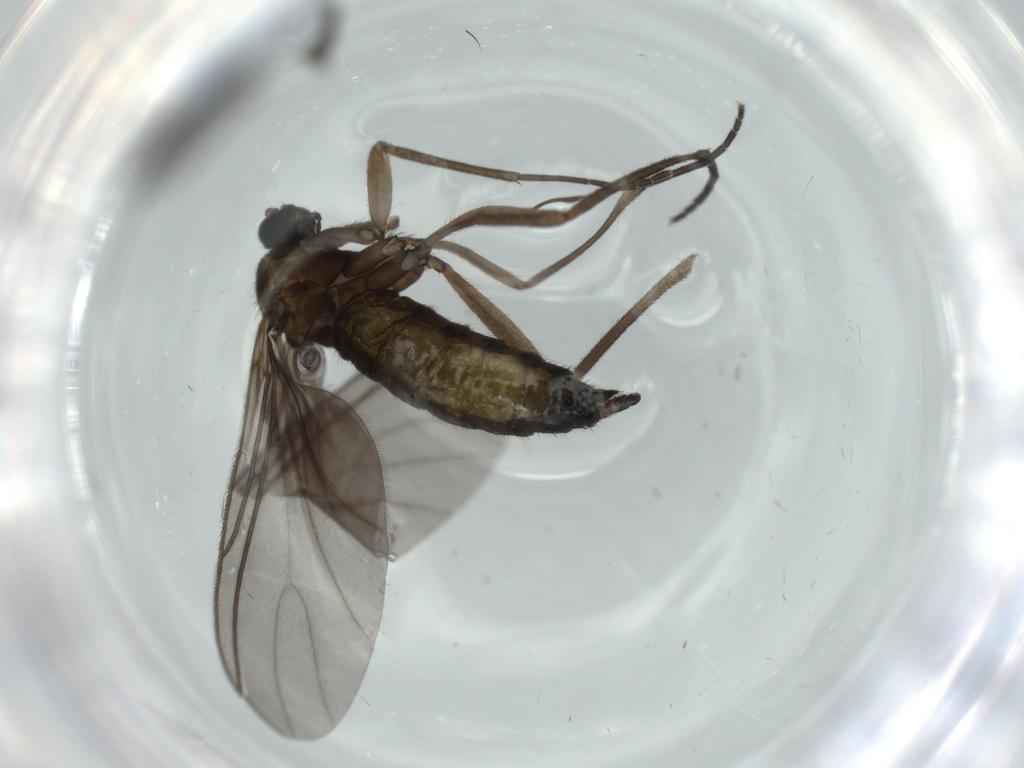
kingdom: Animalia
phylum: Arthropoda
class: Insecta
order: Diptera
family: Sciaridae
